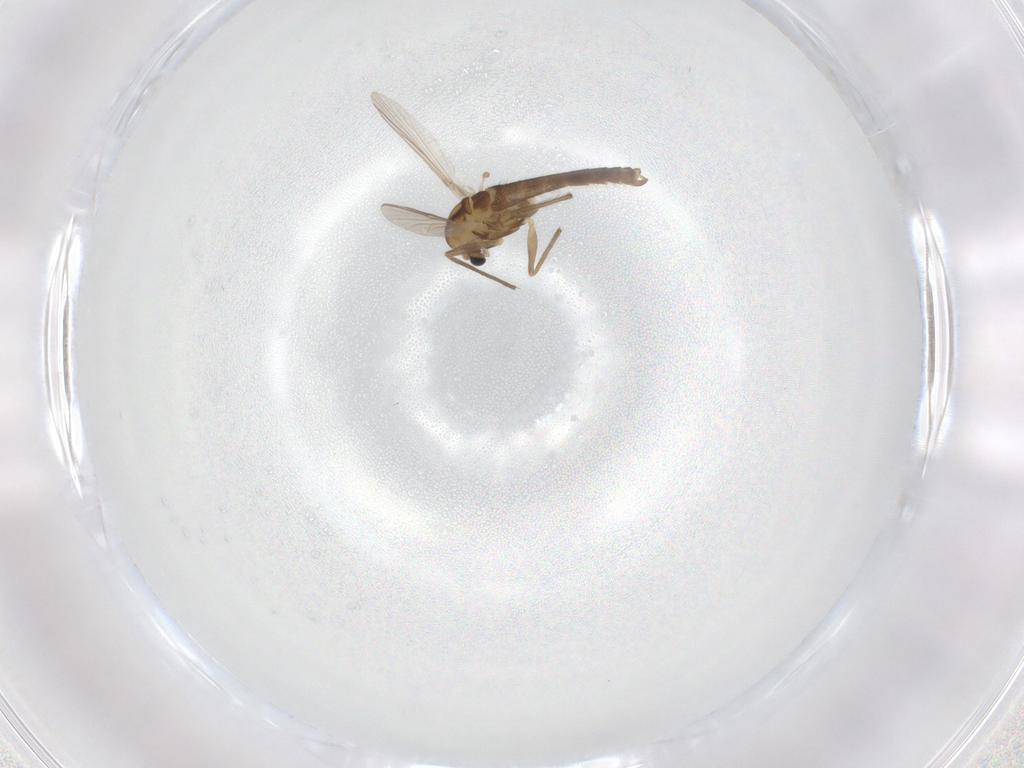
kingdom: Animalia
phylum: Arthropoda
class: Insecta
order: Diptera
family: Chironomidae
